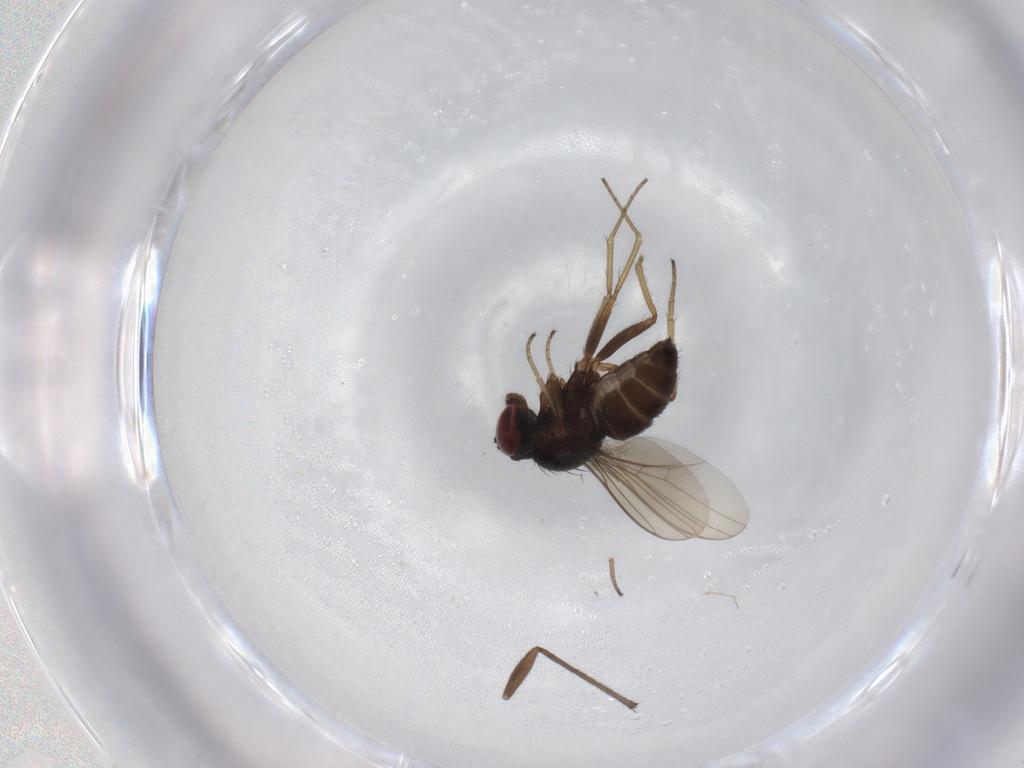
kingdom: Animalia
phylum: Arthropoda
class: Insecta
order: Diptera
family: Dolichopodidae
